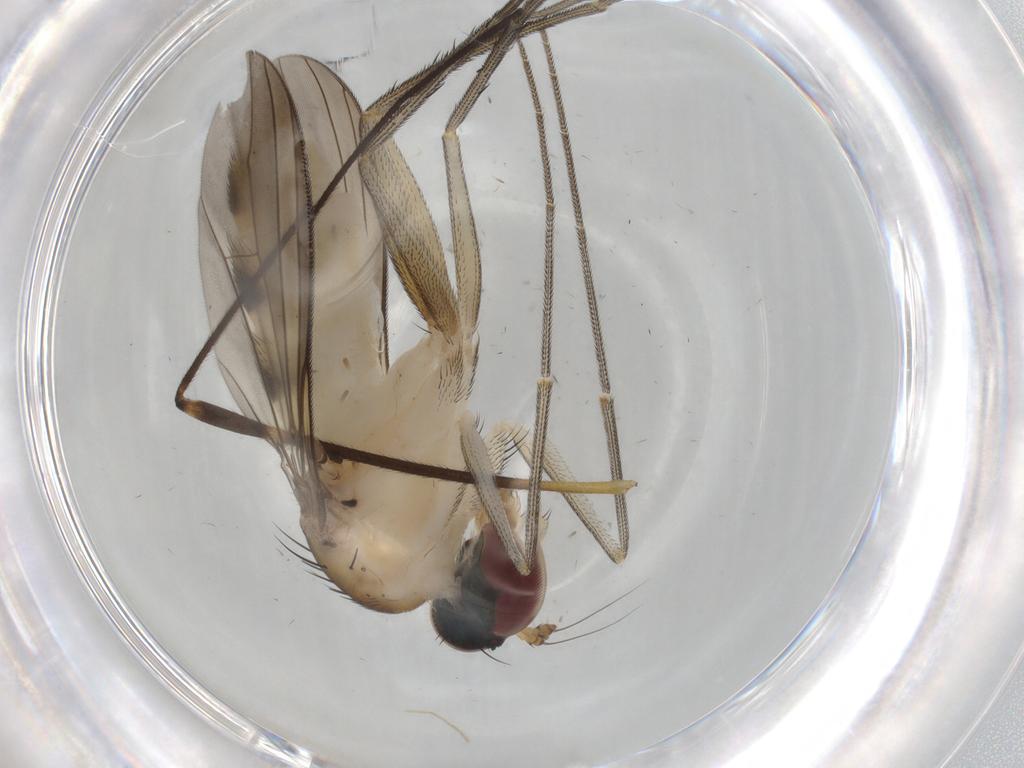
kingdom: Animalia
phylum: Arthropoda
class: Insecta
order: Diptera
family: Dolichopodidae
